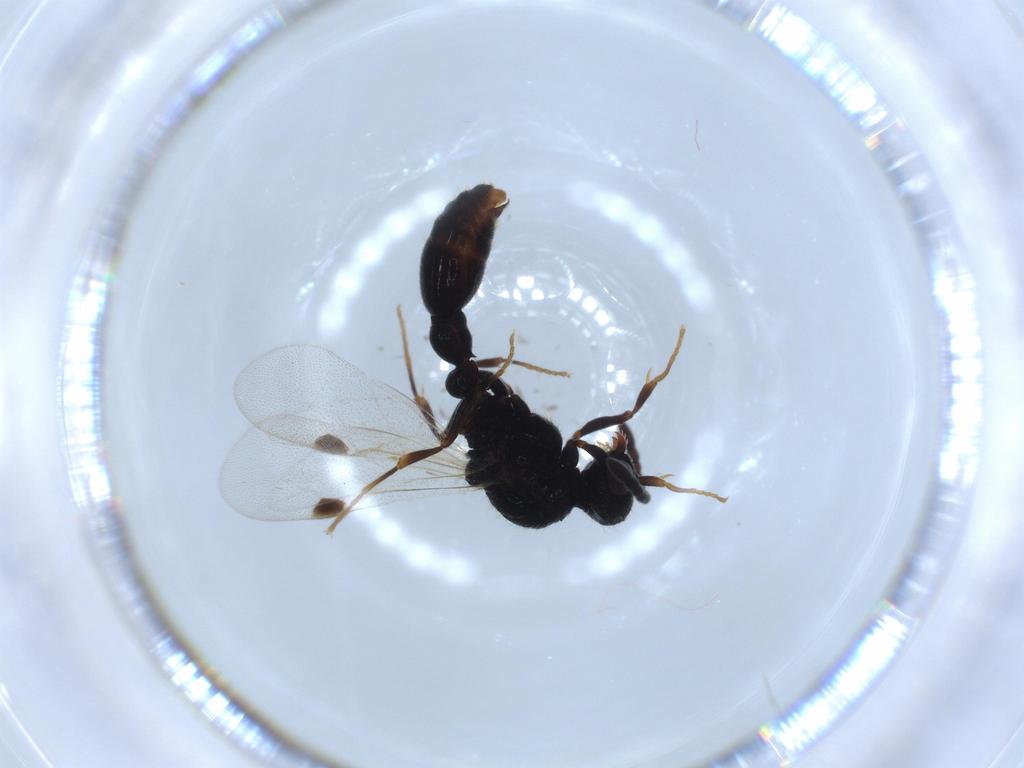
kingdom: Animalia
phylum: Arthropoda
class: Insecta
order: Hymenoptera
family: Formicidae
